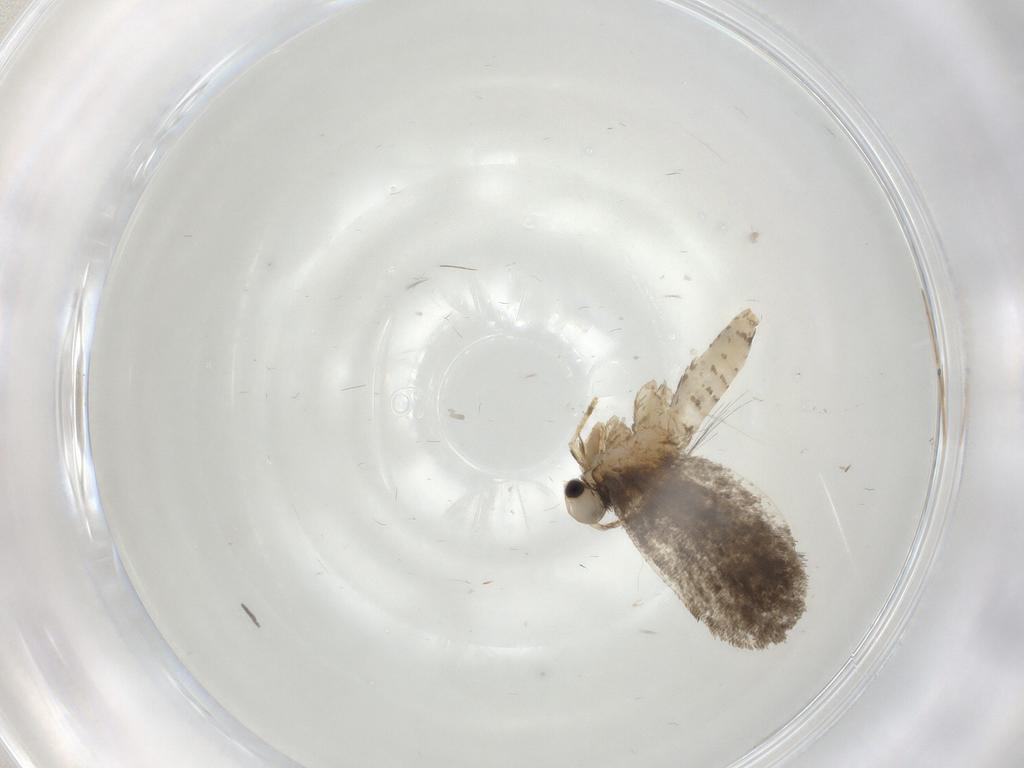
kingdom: Animalia
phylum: Arthropoda
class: Insecta
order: Lepidoptera
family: Psychidae
